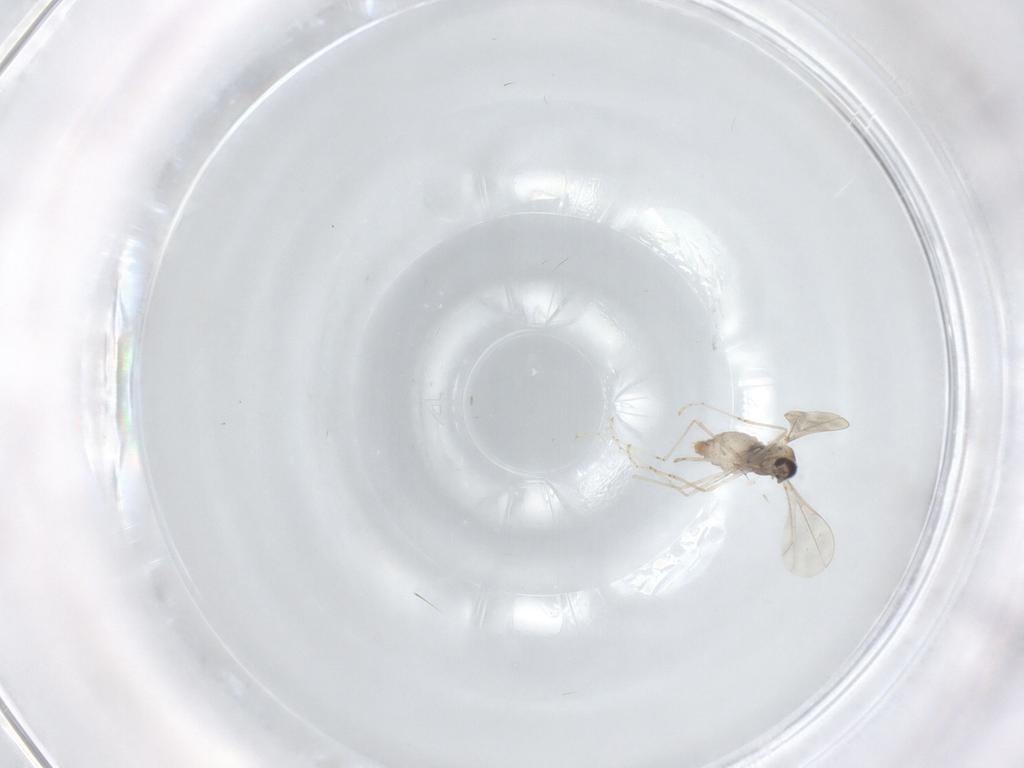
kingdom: Animalia
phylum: Arthropoda
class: Insecta
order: Diptera
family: Cecidomyiidae
